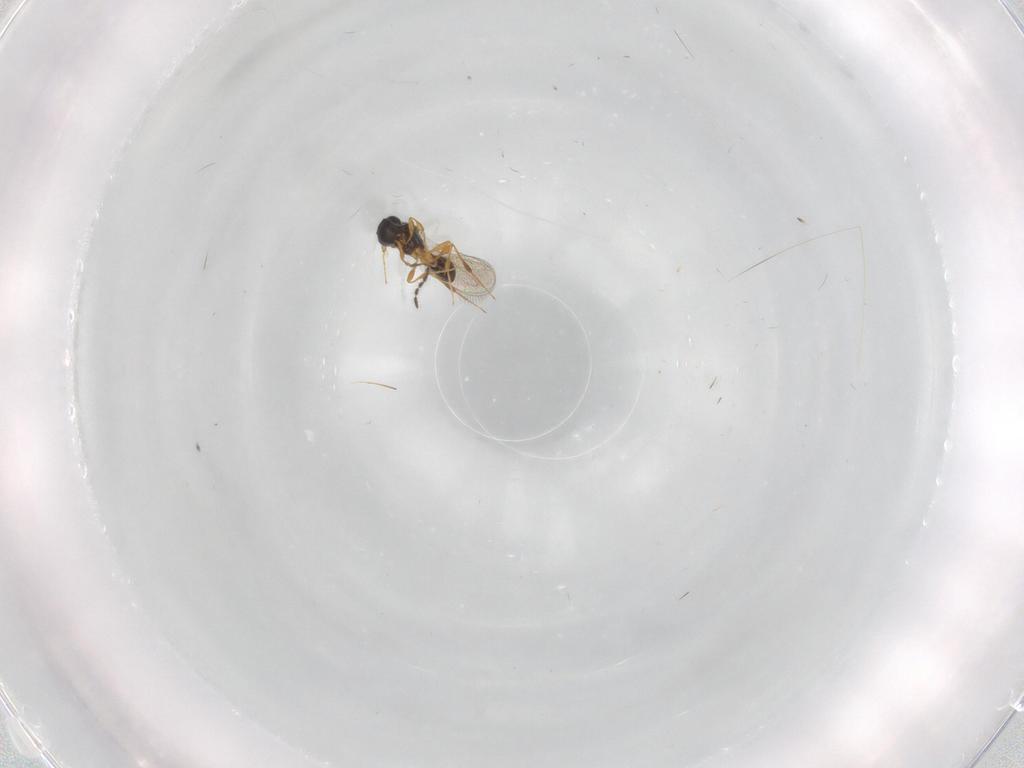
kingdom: Animalia
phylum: Arthropoda
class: Insecta
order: Hymenoptera
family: Platygastridae
